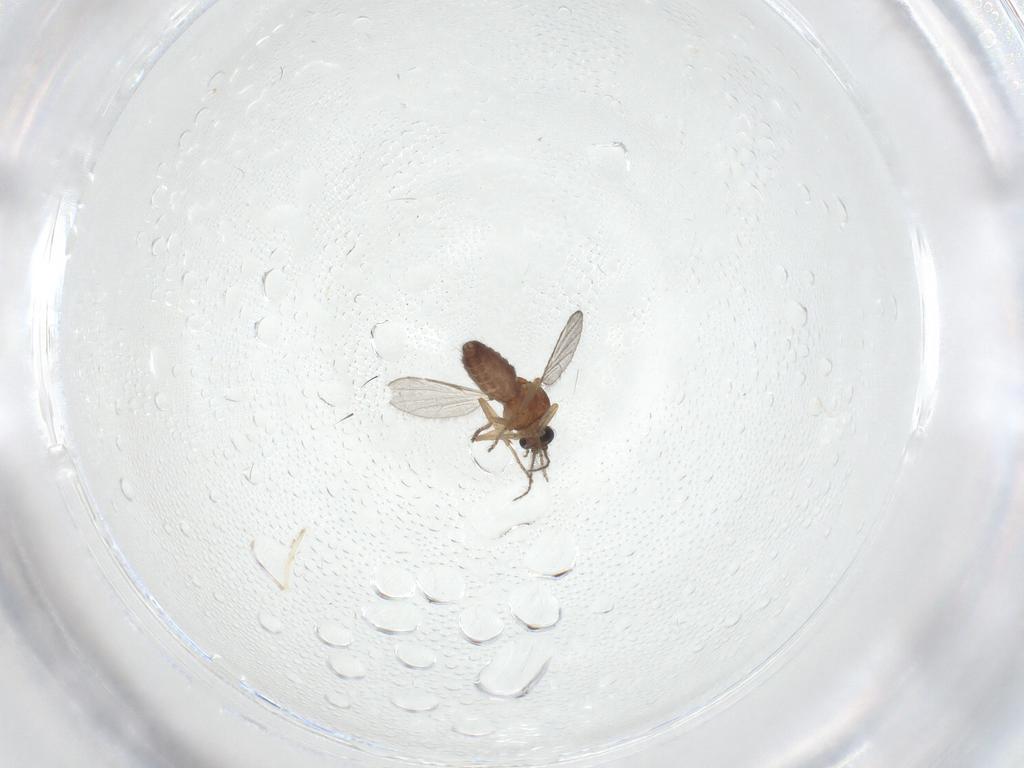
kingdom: Animalia
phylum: Arthropoda
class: Insecta
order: Diptera
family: Ceratopogonidae
